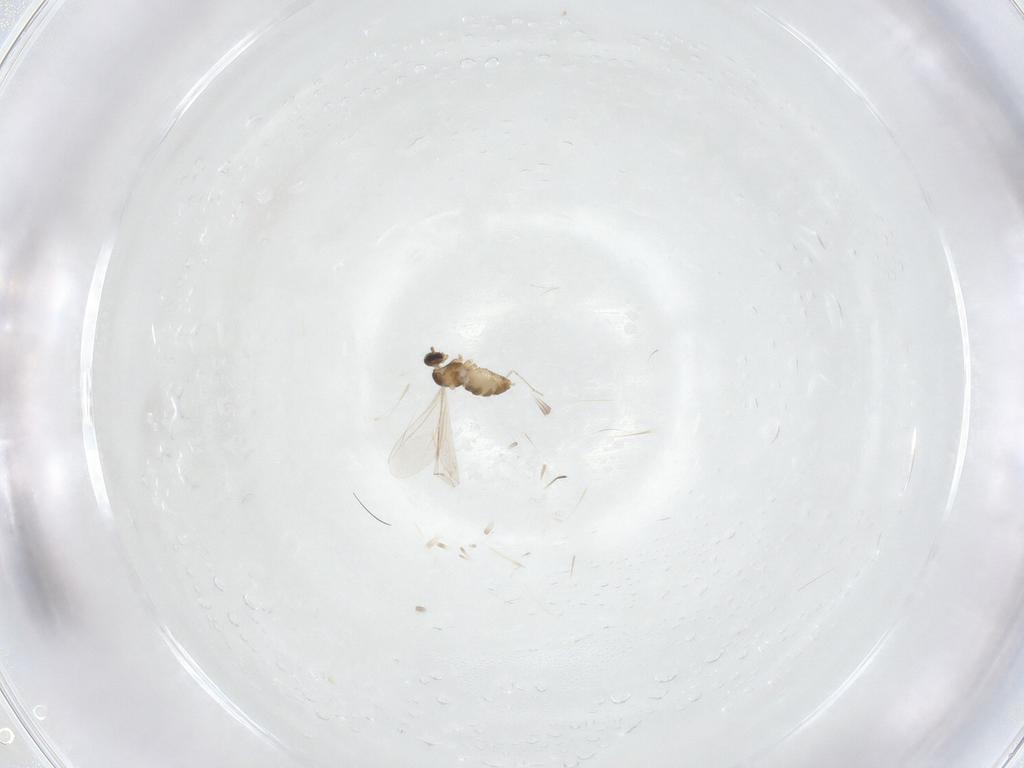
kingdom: Animalia
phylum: Arthropoda
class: Insecta
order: Diptera
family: Cecidomyiidae
